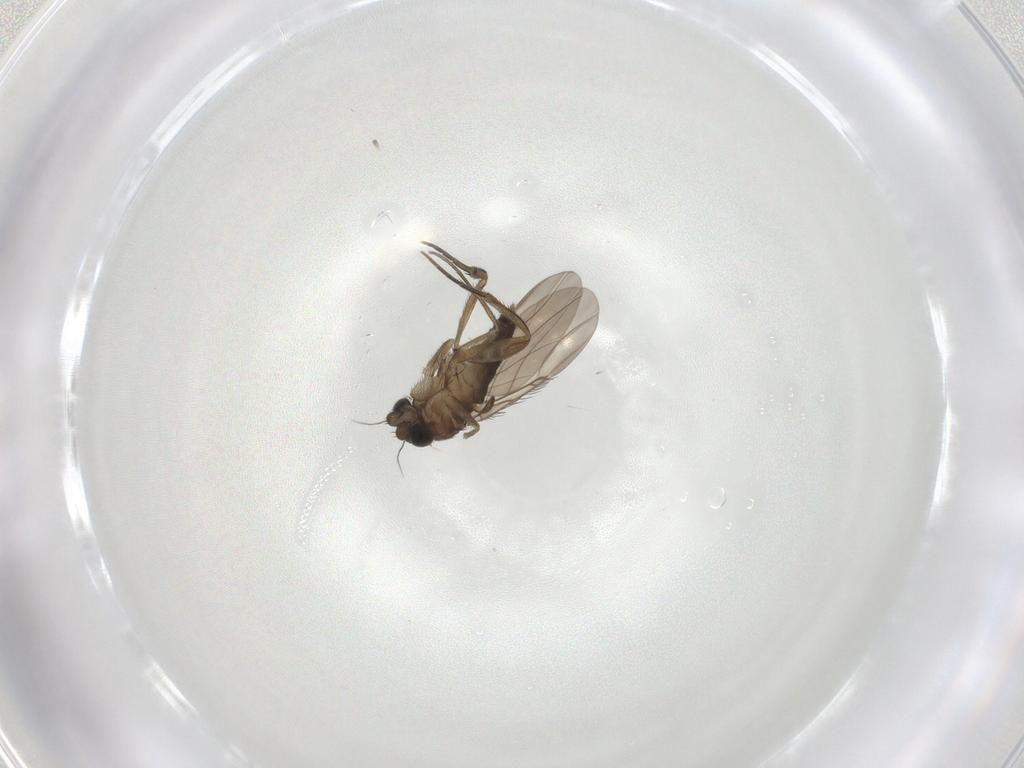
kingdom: Animalia
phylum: Arthropoda
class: Insecta
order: Diptera
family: Phoridae
